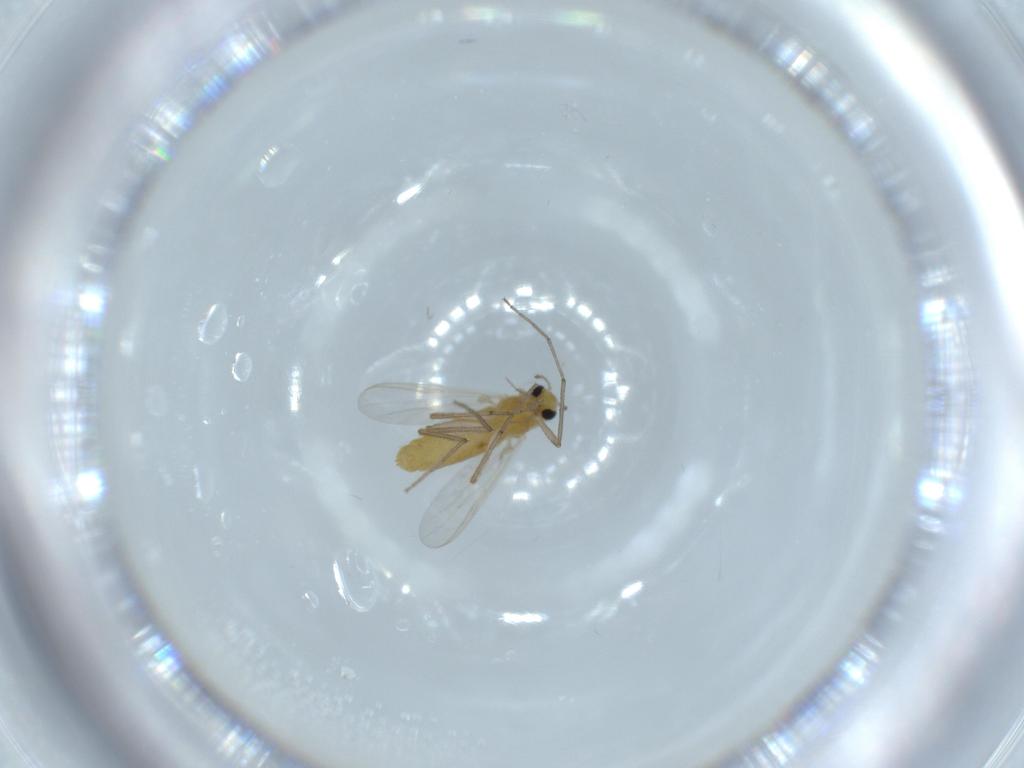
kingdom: Animalia
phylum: Arthropoda
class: Insecta
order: Diptera
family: Chironomidae
